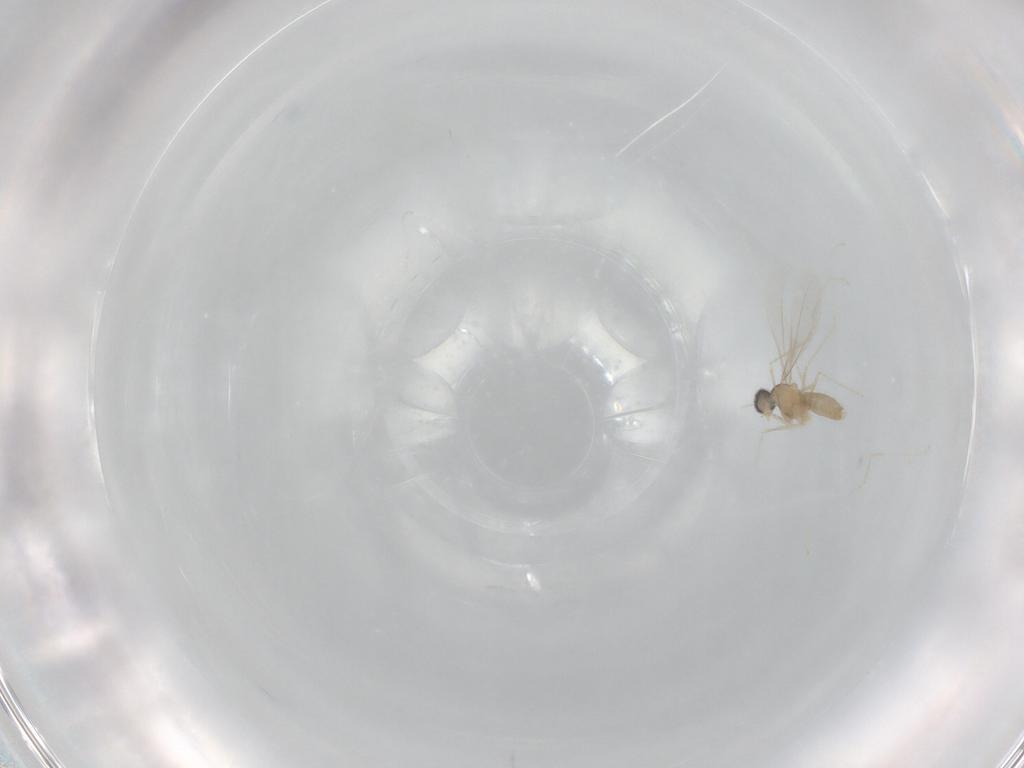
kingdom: Animalia
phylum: Arthropoda
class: Insecta
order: Diptera
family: Cecidomyiidae
